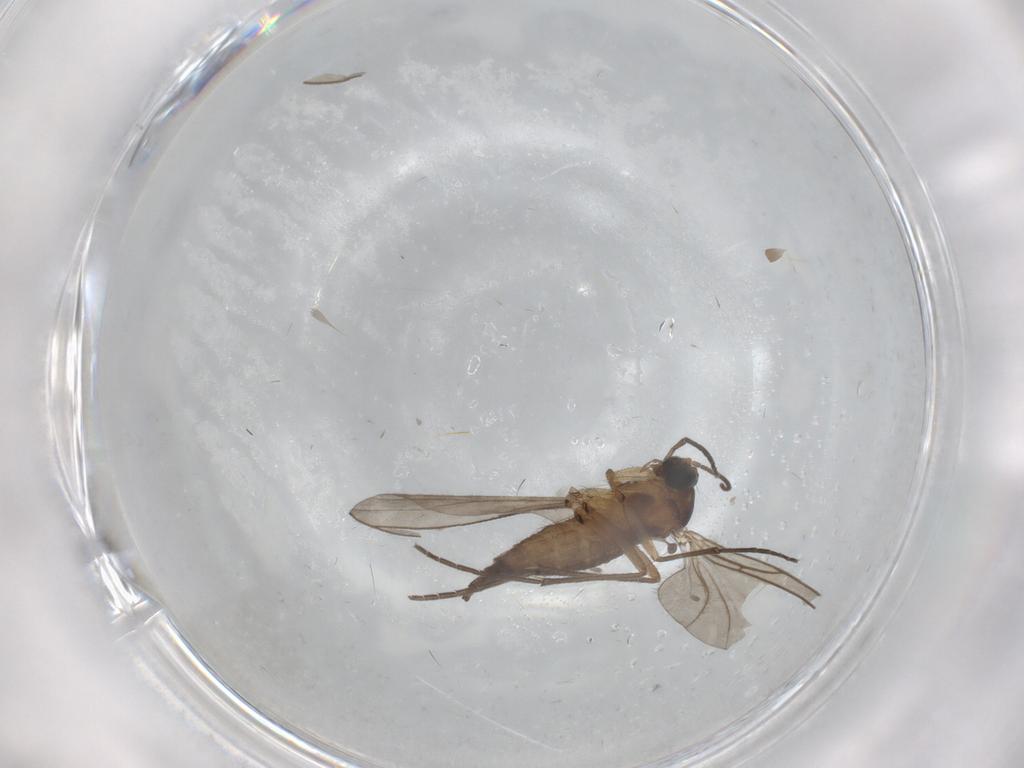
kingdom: Animalia
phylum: Arthropoda
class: Insecta
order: Diptera
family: Sciaridae
